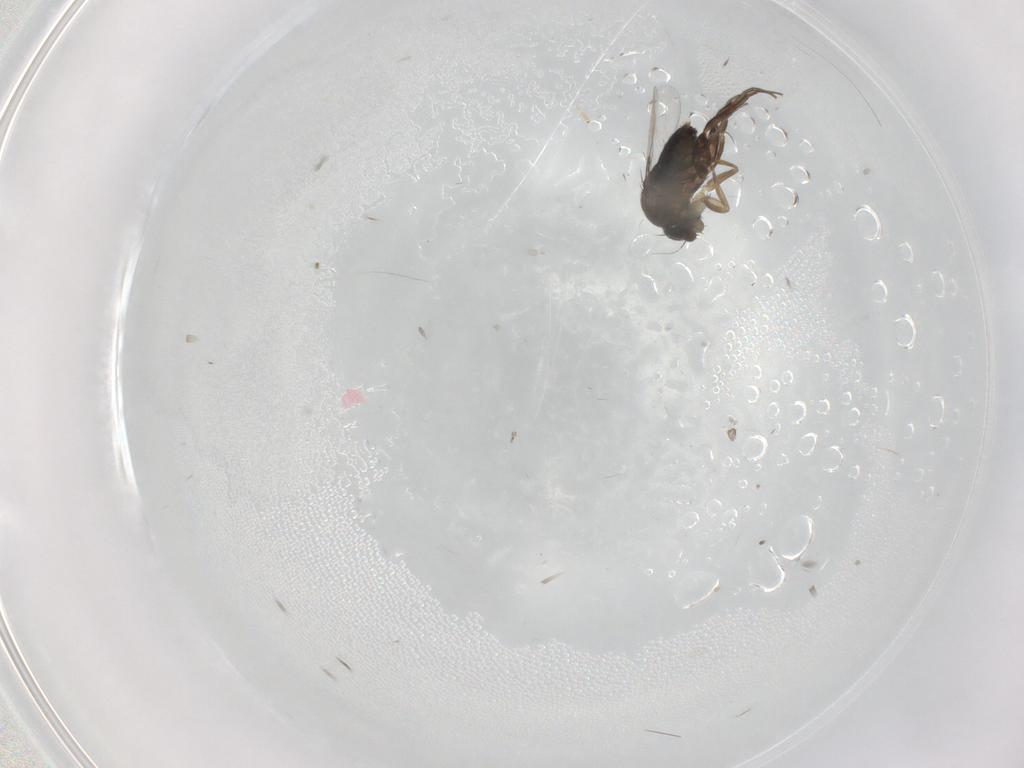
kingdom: Animalia
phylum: Arthropoda
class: Insecta
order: Diptera
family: Phoridae
